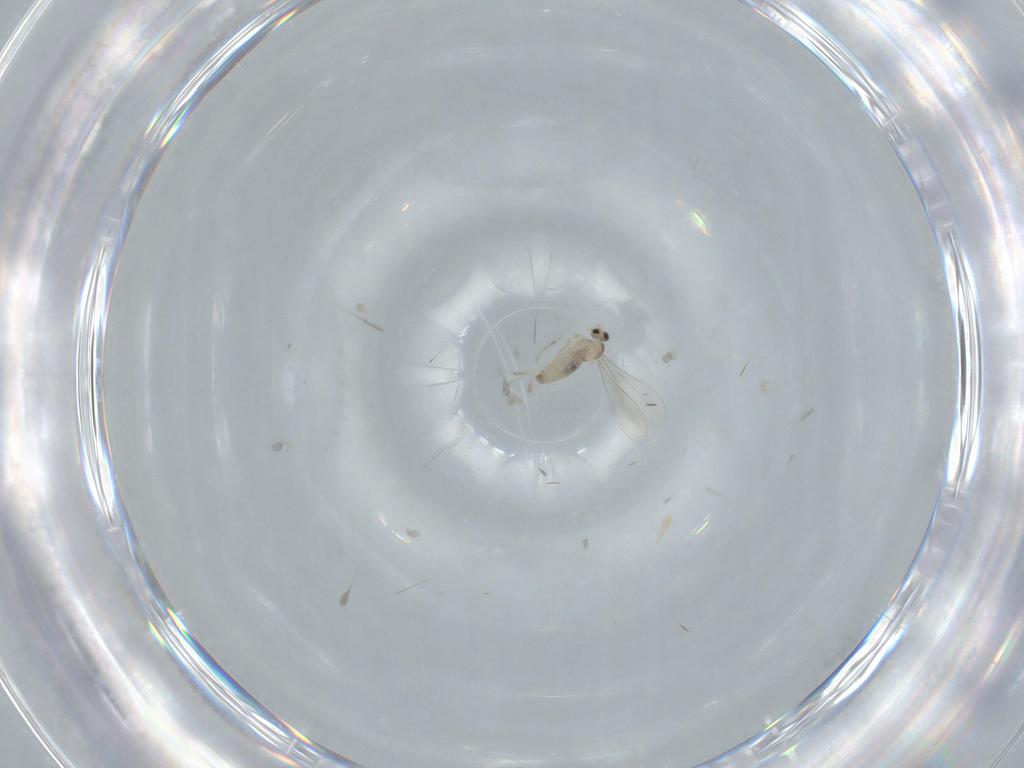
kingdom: Animalia
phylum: Arthropoda
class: Insecta
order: Diptera
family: Cecidomyiidae
